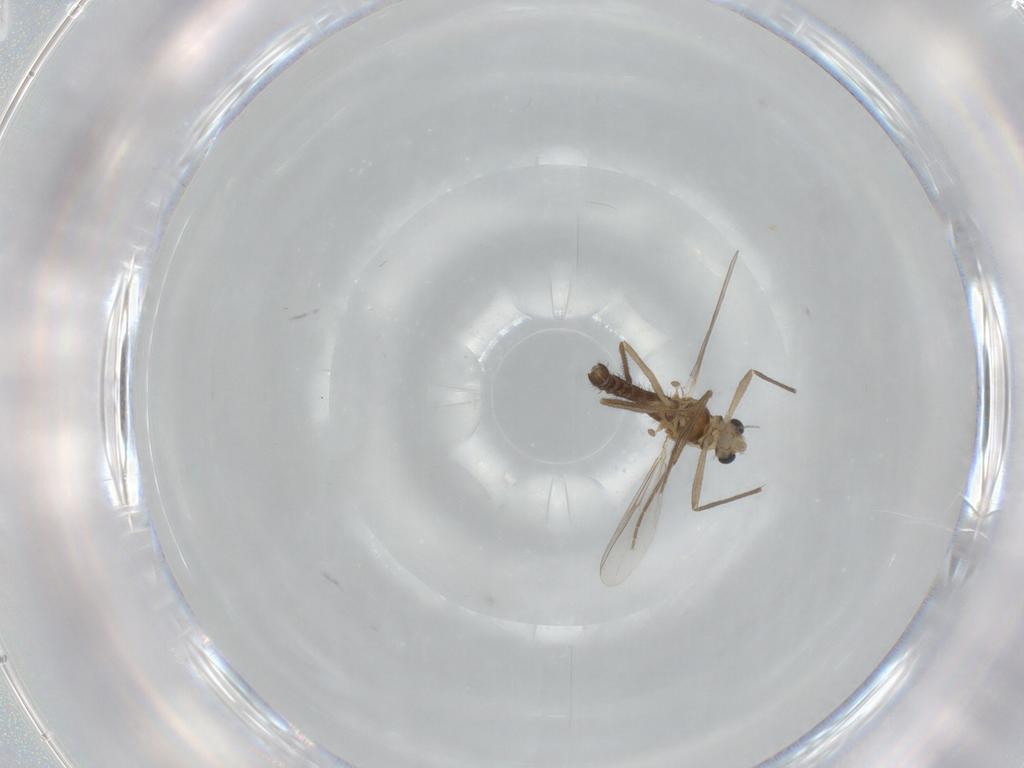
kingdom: Animalia
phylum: Arthropoda
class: Insecta
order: Diptera
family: Chironomidae
